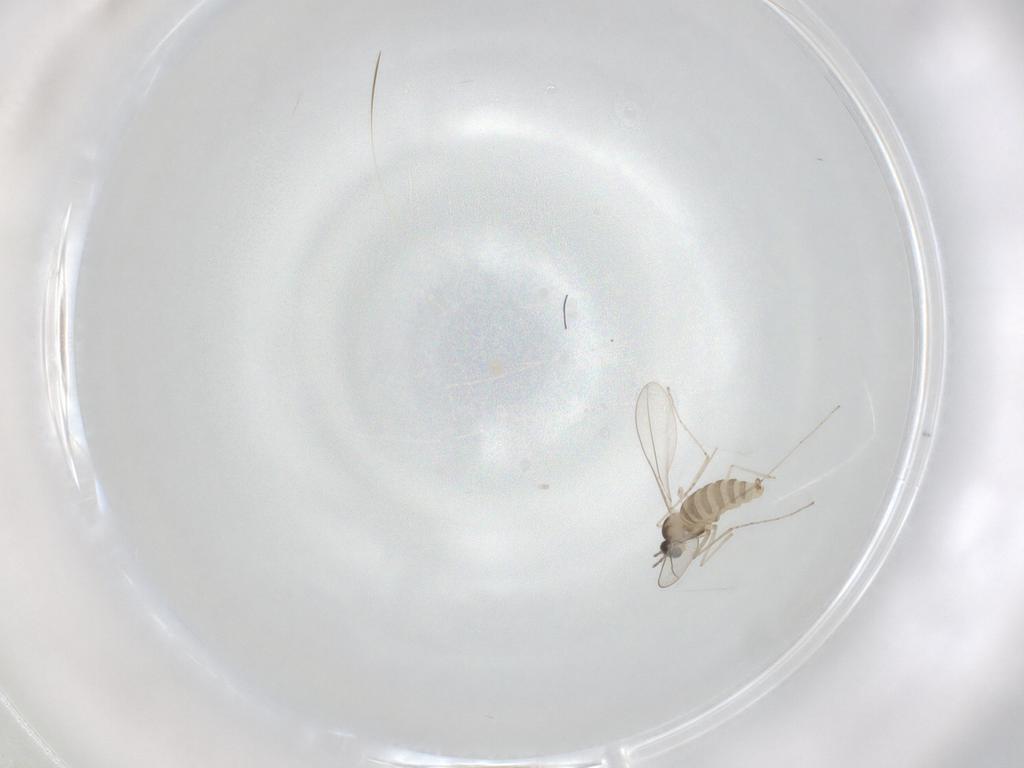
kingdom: Animalia
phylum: Arthropoda
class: Insecta
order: Diptera
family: Cecidomyiidae
